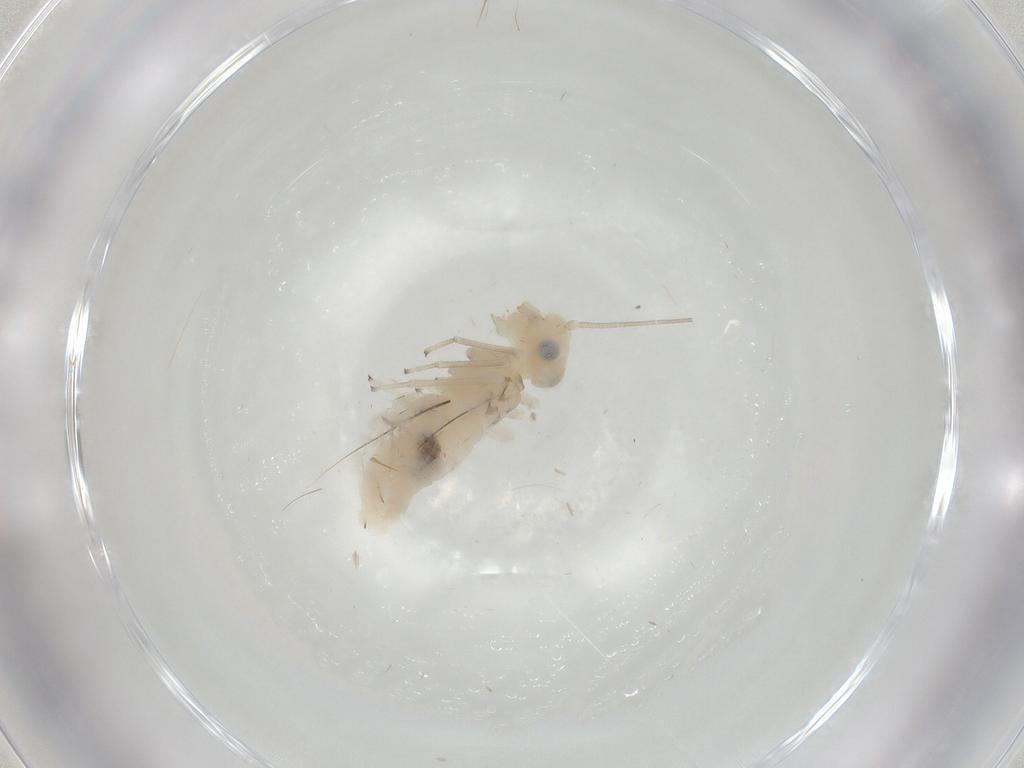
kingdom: Animalia
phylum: Arthropoda
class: Insecta
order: Psocodea
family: Caeciliusidae
